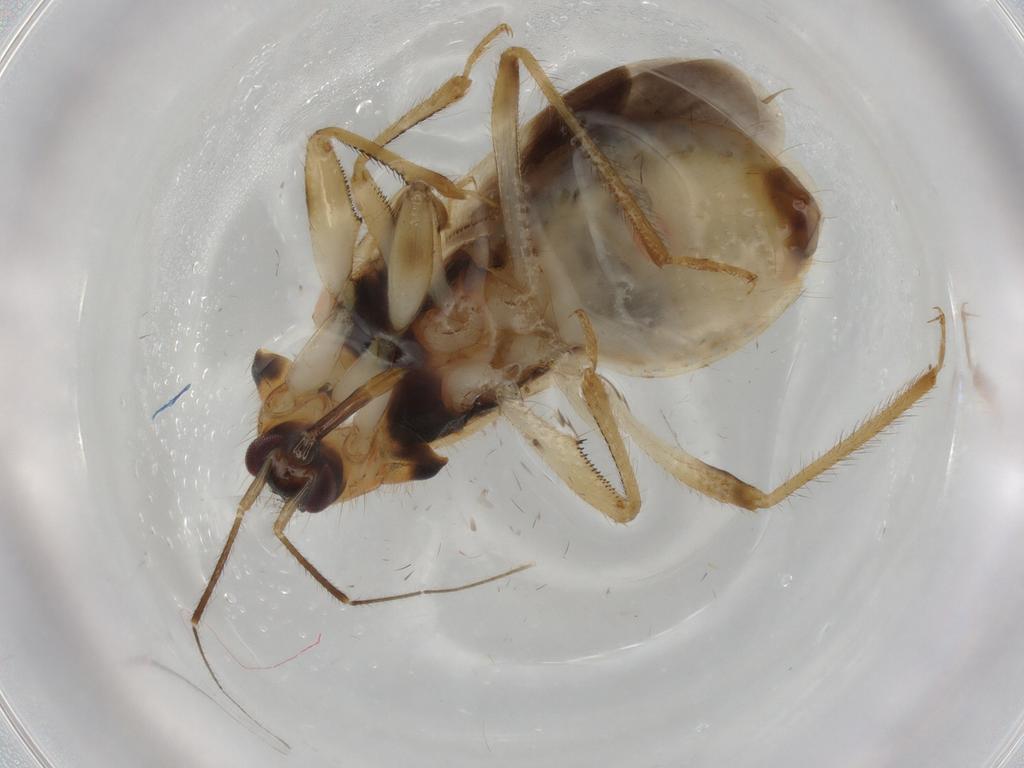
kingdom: Animalia
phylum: Arthropoda
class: Insecta
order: Hemiptera
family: Nabidae
